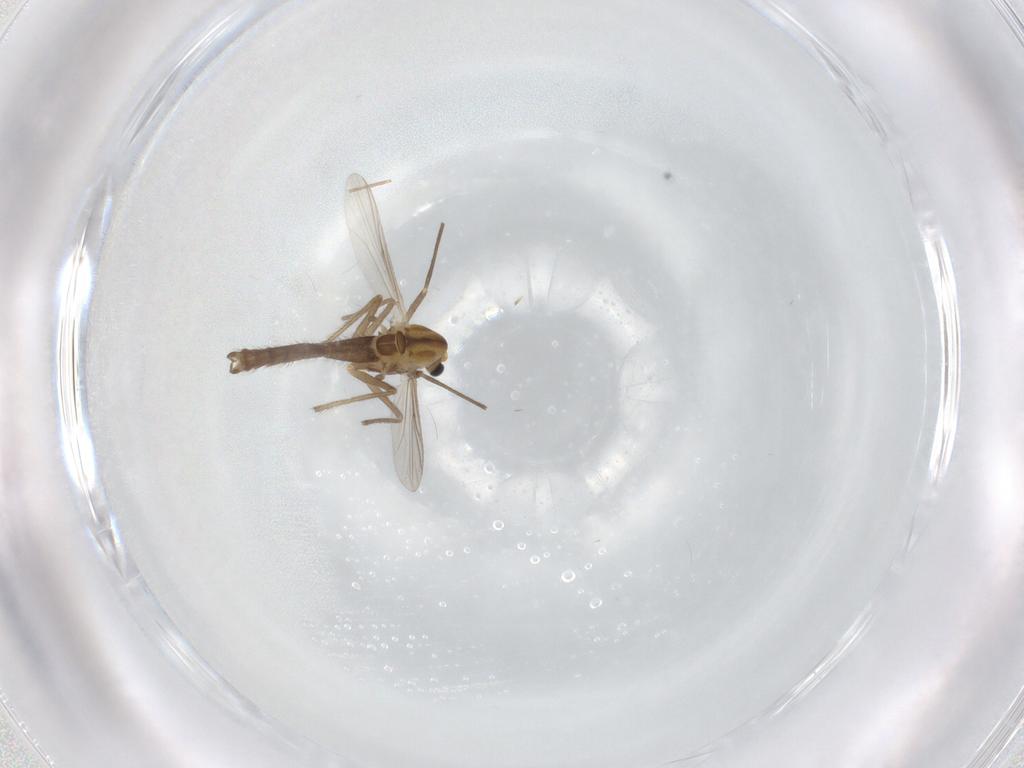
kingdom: Animalia
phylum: Arthropoda
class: Insecta
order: Diptera
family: Chironomidae
